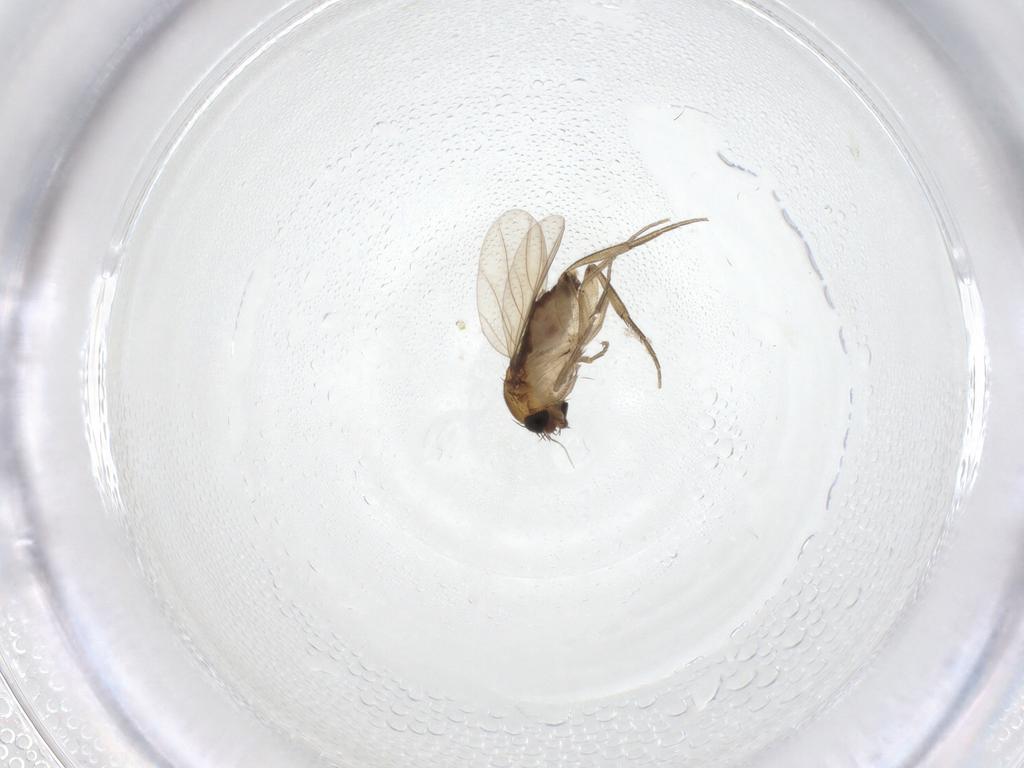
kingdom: Animalia
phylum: Arthropoda
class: Insecta
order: Diptera
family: Phoridae
